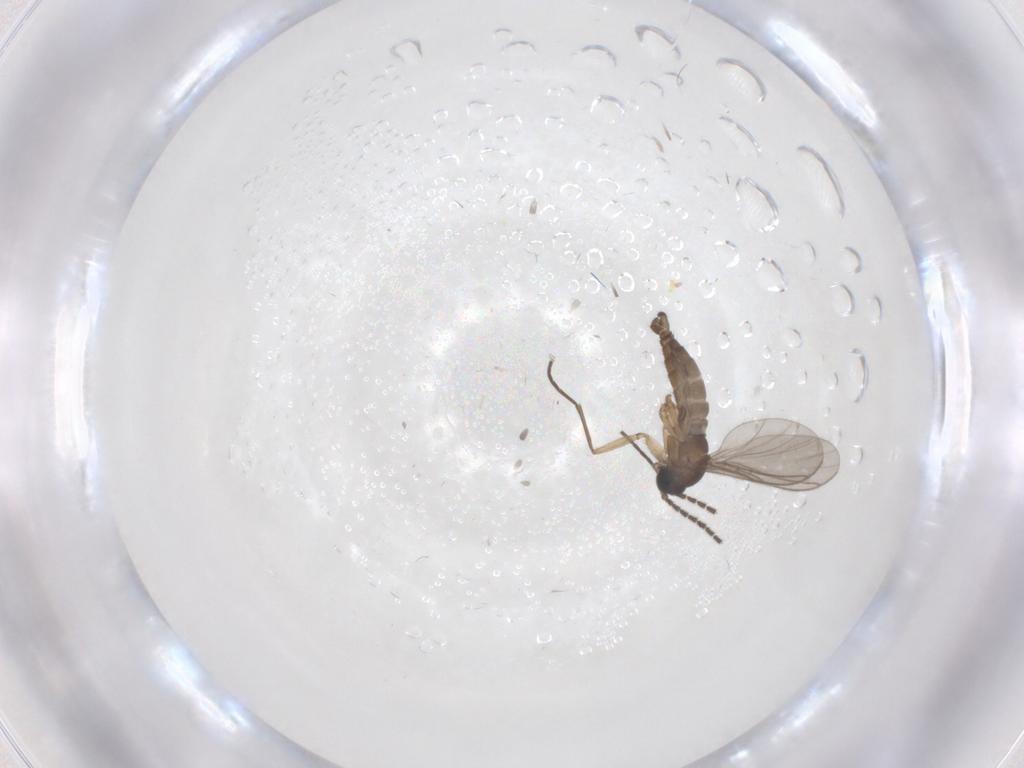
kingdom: Animalia
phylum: Arthropoda
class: Insecta
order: Diptera
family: Sciaridae
